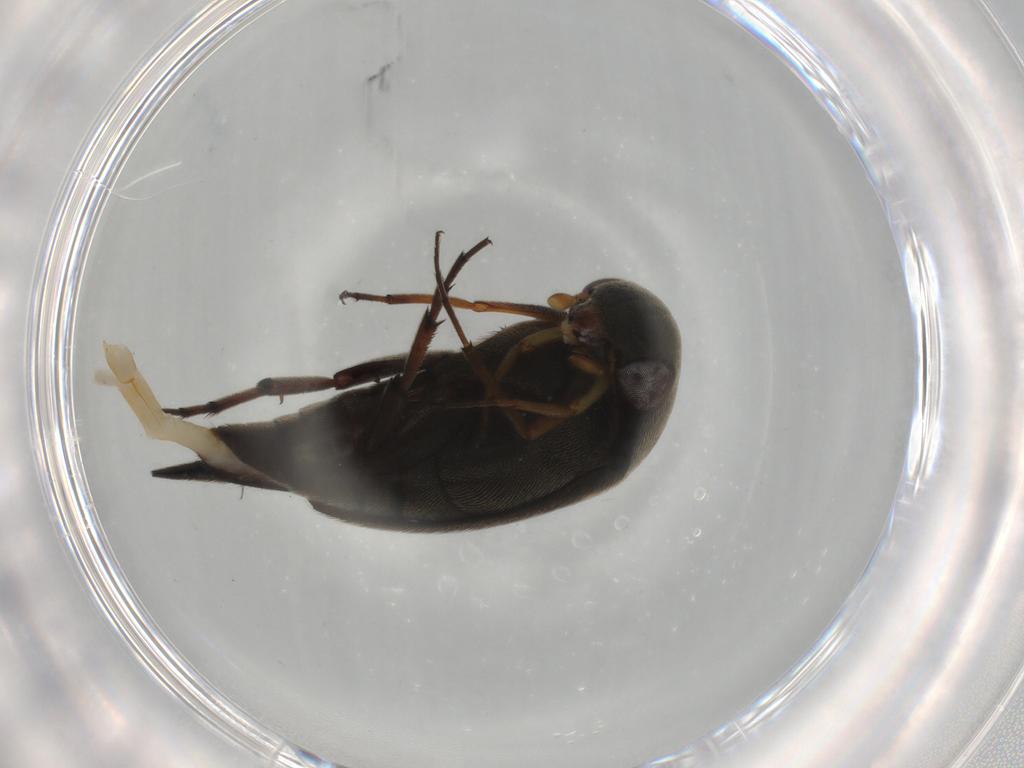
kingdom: Animalia
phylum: Arthropoda
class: Insecta
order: Coleoptera
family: Mordellidae
